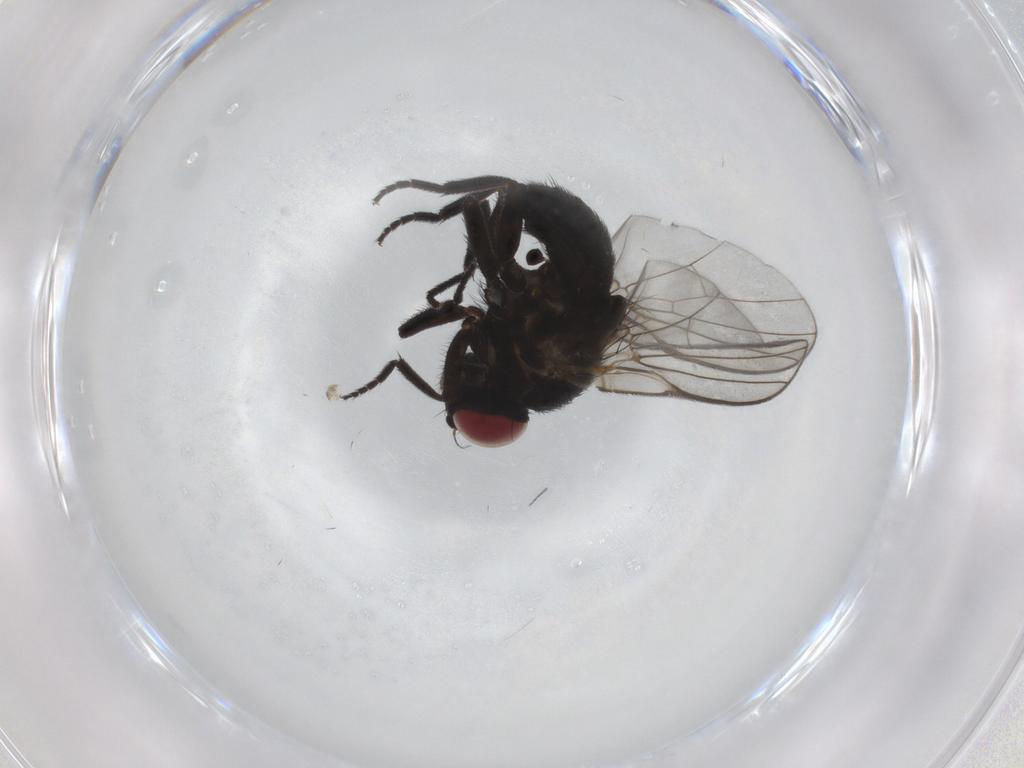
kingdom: Animalia
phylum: Arthropoda
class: Insecta
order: Diptera
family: Agromyzidae
